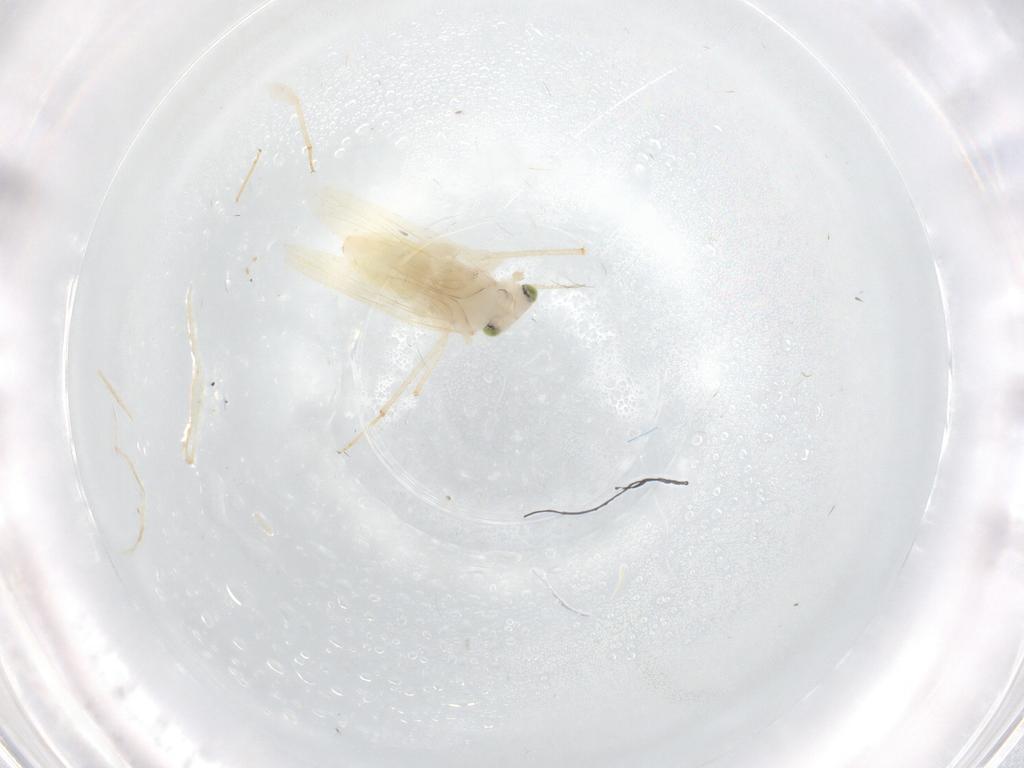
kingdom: Animalia
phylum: Arthropoda
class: Insecta
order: Psocodea
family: Lepidopsocidae
